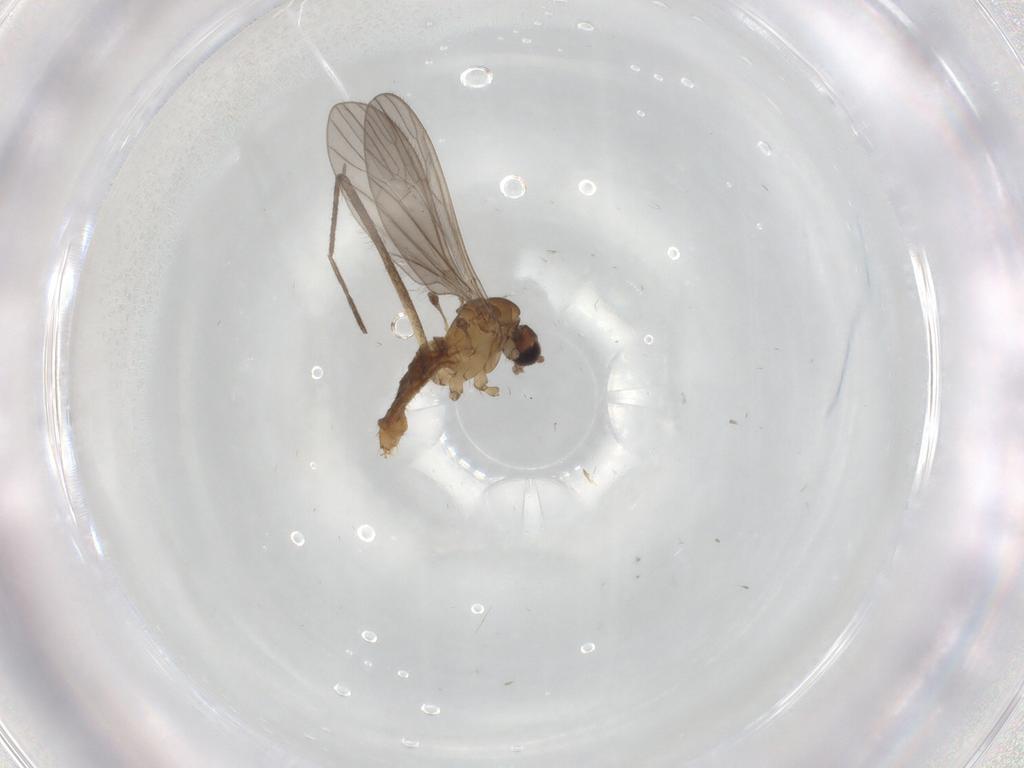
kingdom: Animalia
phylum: Arthropoda
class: Insecta
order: Diptera
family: Limoniidae
